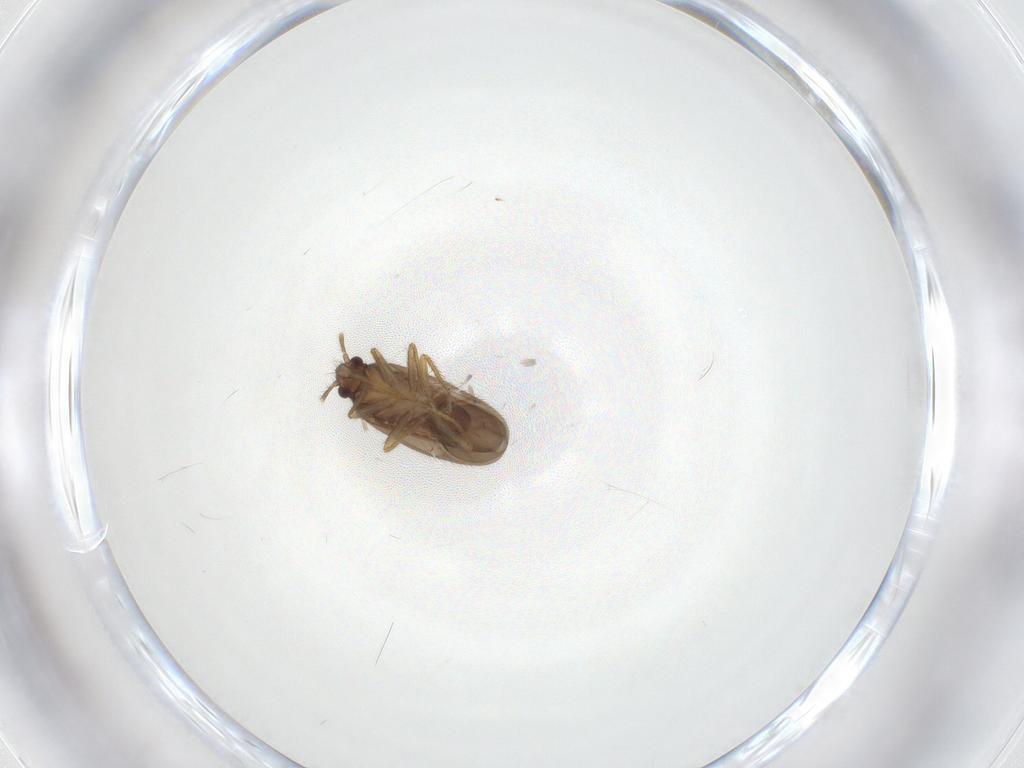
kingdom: Animalia
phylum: Arthropoda
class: Insecta
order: Hemiptera
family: Ceratocombidae
